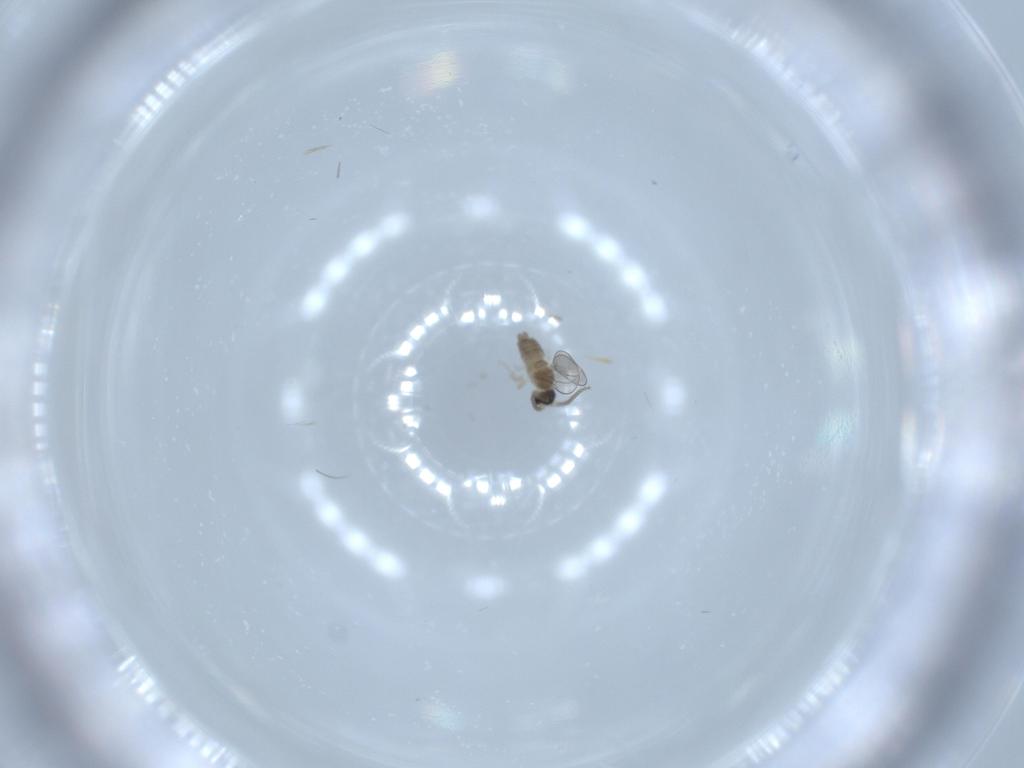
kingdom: Animalia
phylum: Arthropoda
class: Insecta
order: Diptera
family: Cecidomyiidae
